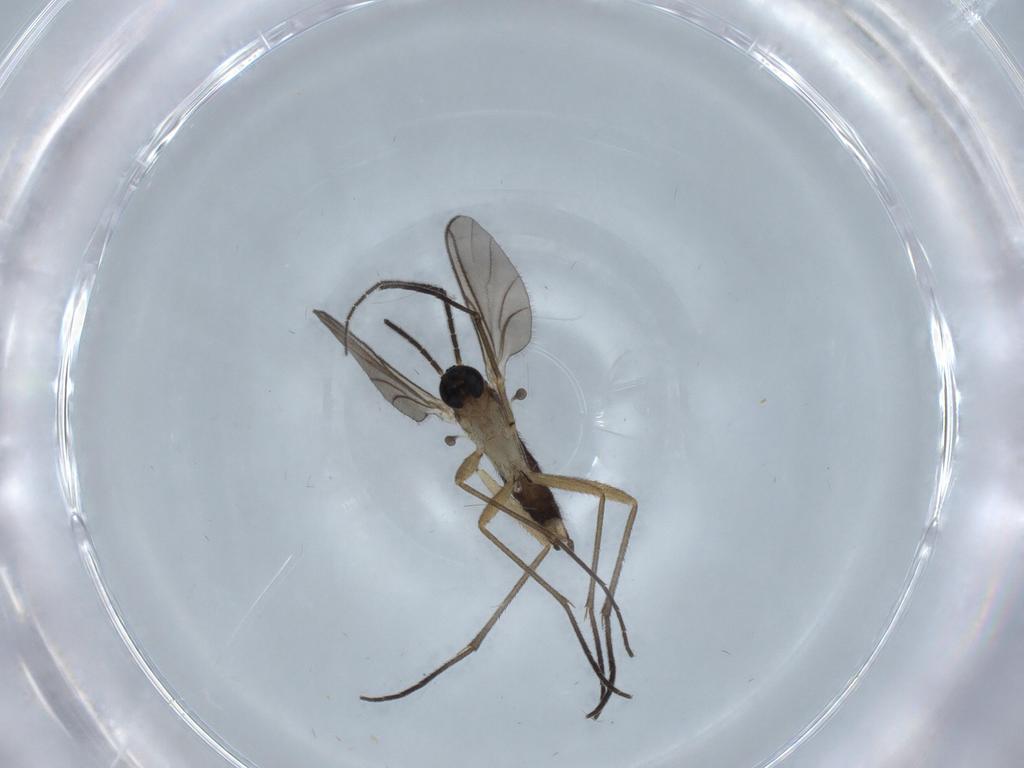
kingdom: Animalia
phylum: Arthropoda
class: Insecta
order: Diptera
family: Sciaridae
